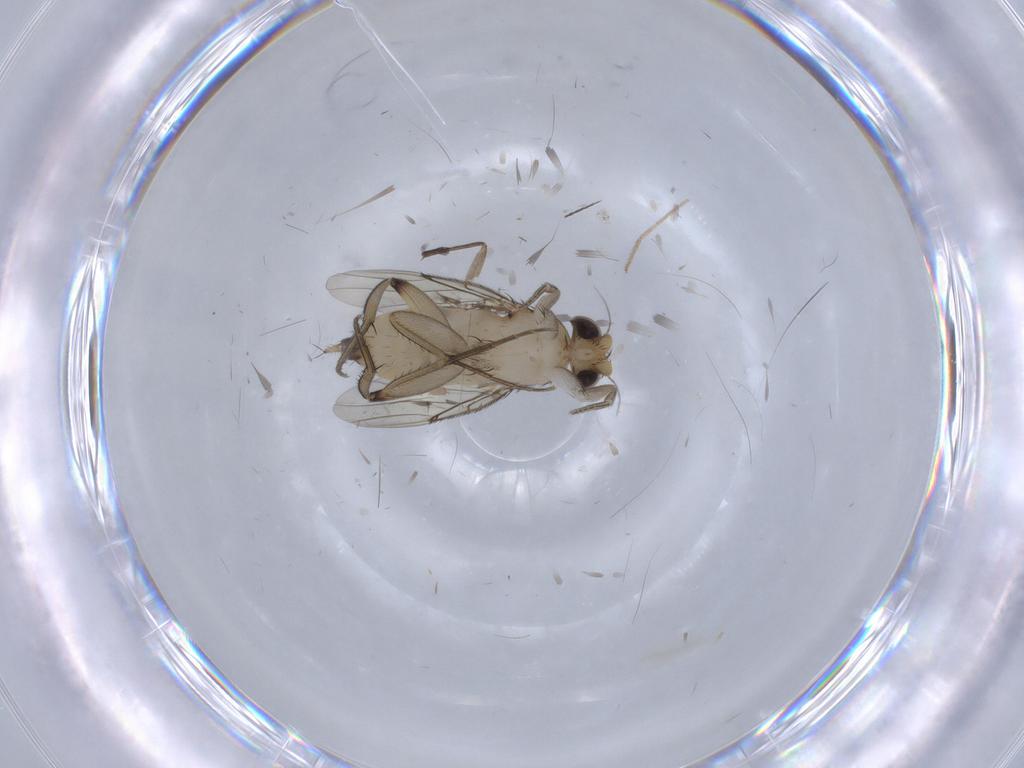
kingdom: Animalia
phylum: Arthropoda
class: Insecta
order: Diptera
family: Phoridae
